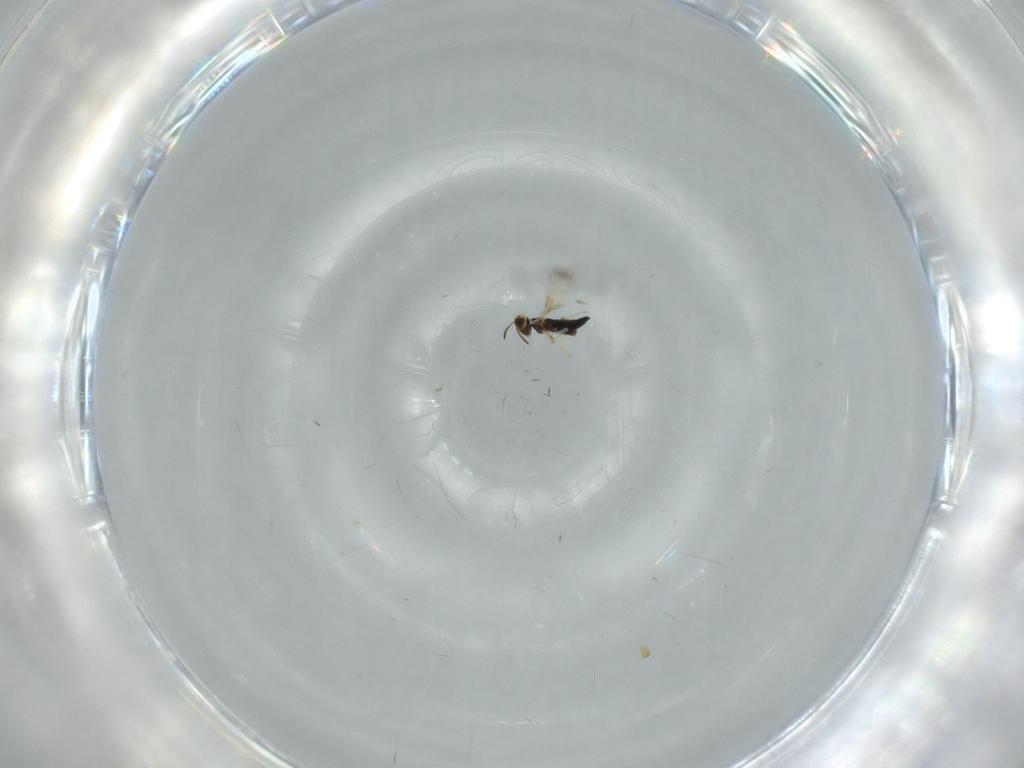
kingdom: Animalia
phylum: Arthropoda
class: Insecta
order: Hymenoptera
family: Signiphoridae
